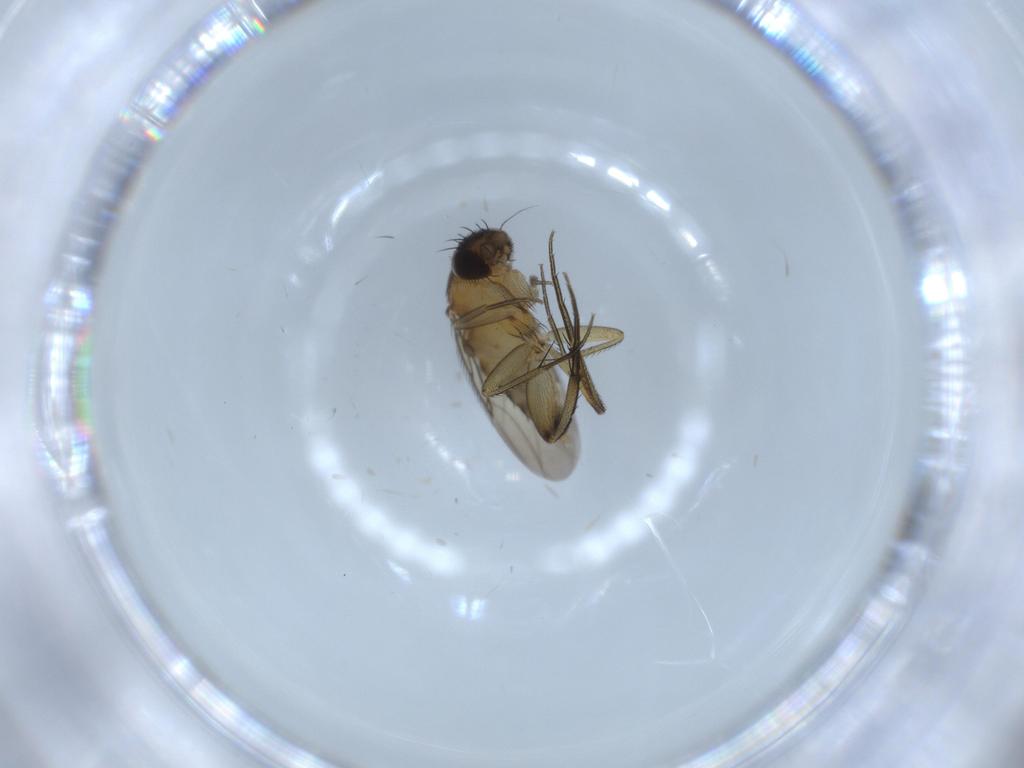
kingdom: Animalia
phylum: Arthropoda
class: Insecta
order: Diptera
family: Phoridae
